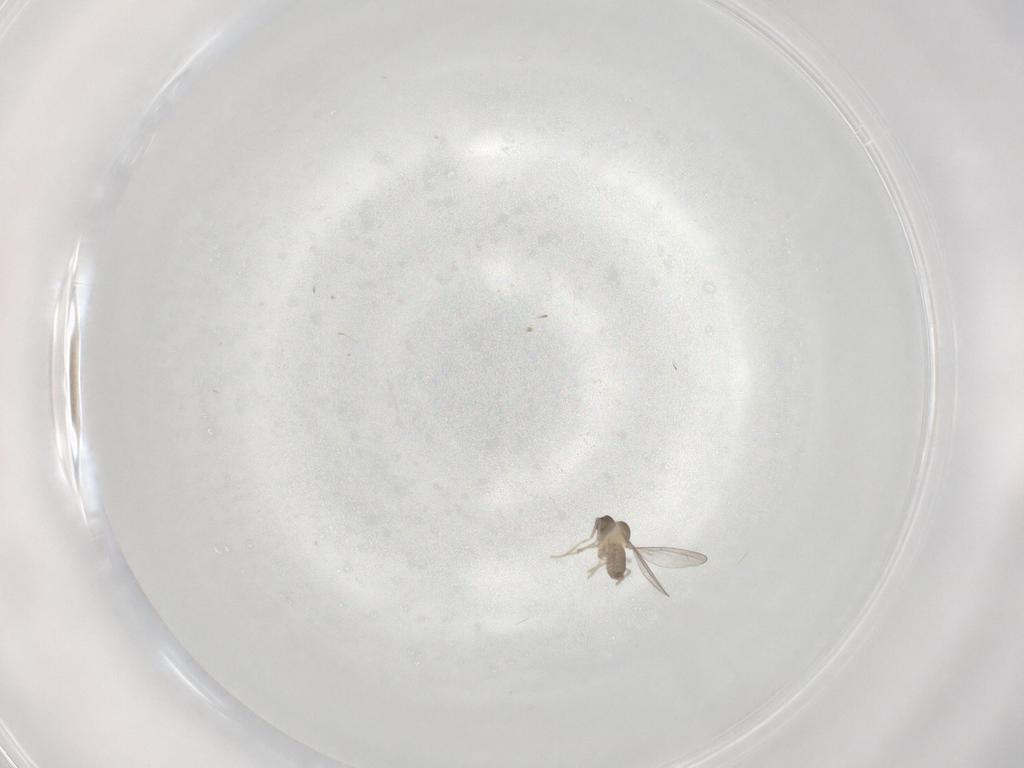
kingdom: Animalia
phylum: Arthropoda
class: Insecta
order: Diptera
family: Cecidomyiidae
